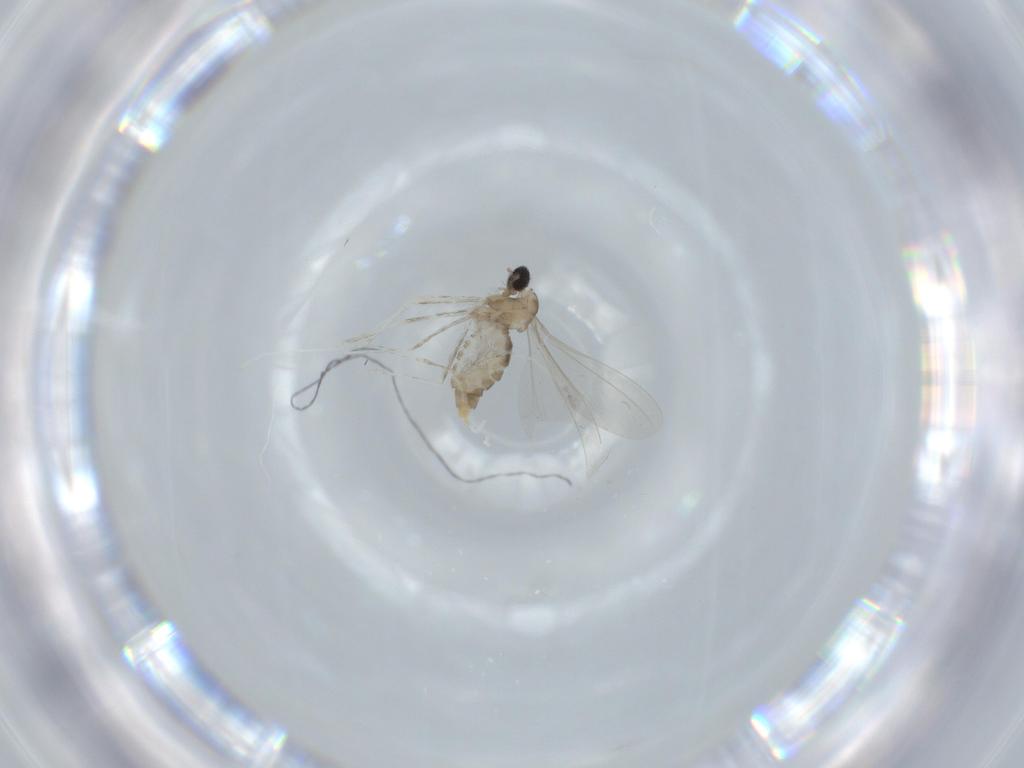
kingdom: Animalia
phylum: Arthropoda
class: Insecta
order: Diptera
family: Cecidomyiidae
